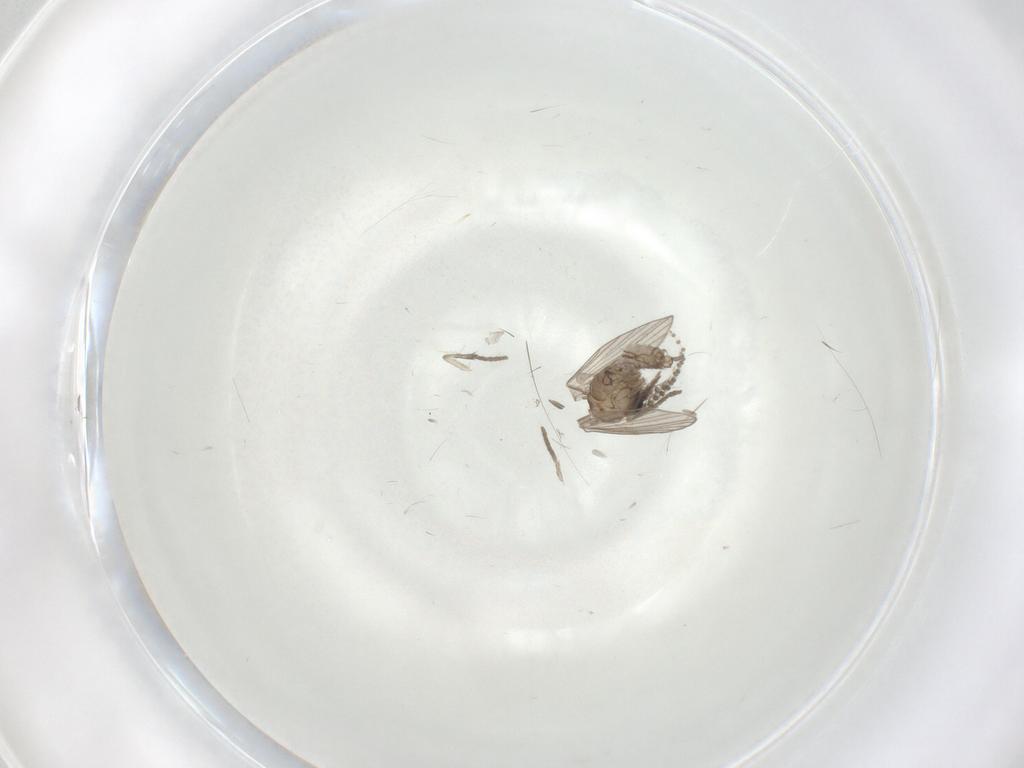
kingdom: Animalia
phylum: Arthropoda
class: Insecta
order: Diptera
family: Psychodidae
